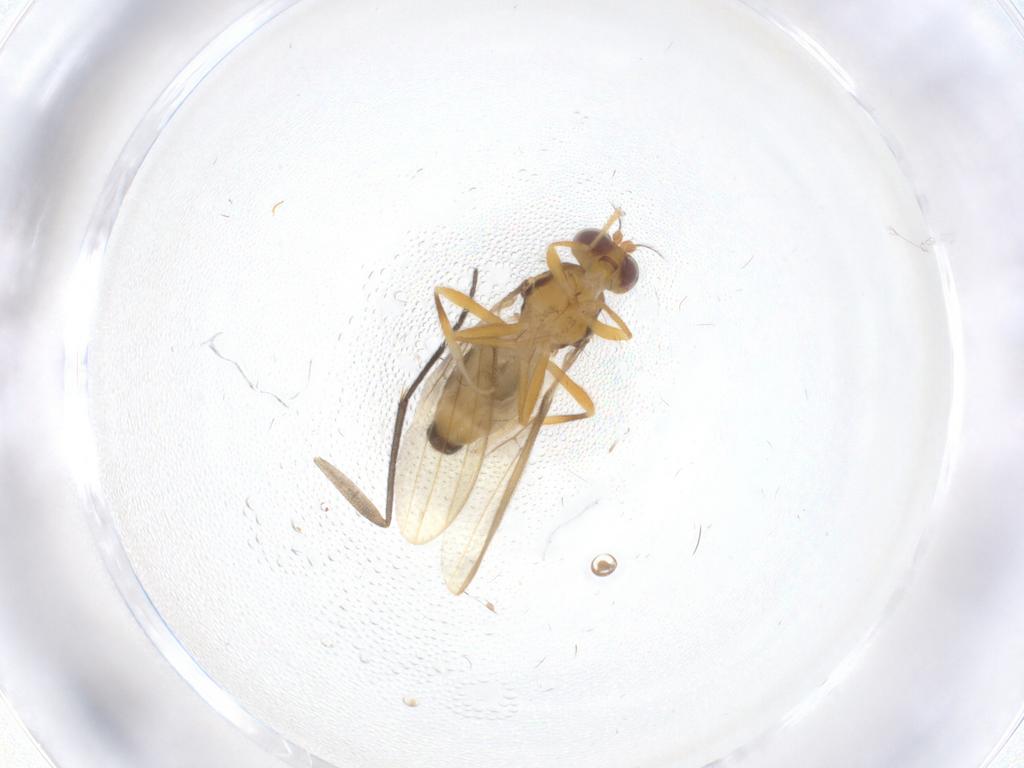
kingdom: Animalia
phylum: Arthropoda
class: Insecta
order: Diptera
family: Periscelididae
